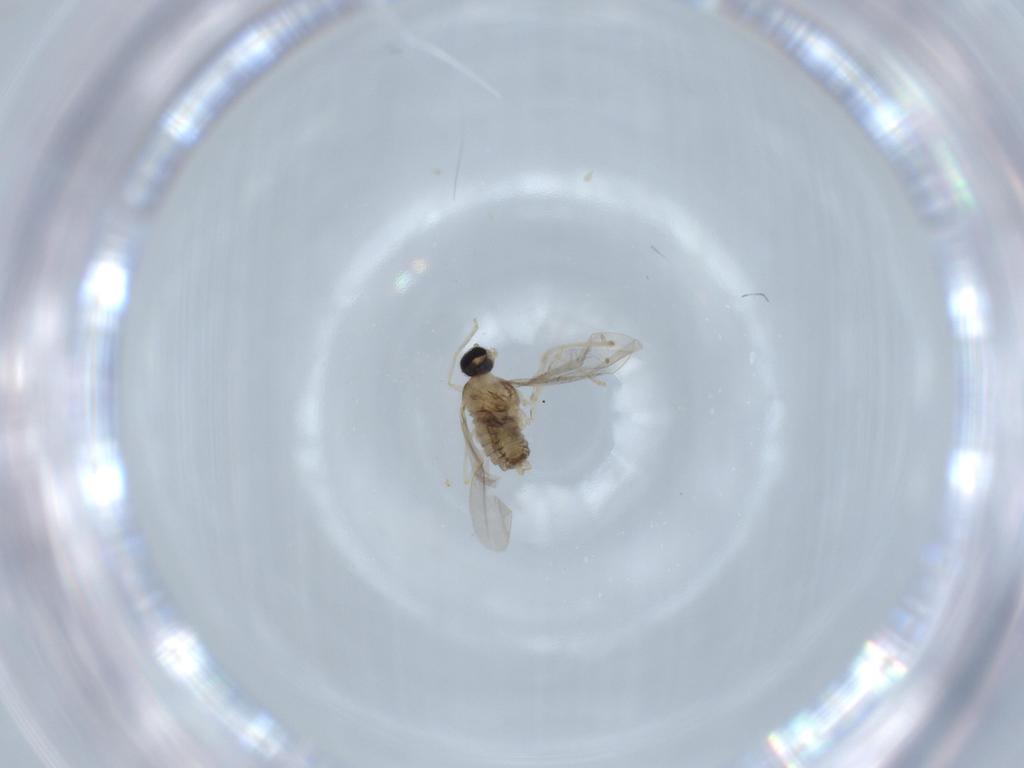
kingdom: Animalia
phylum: Arthropoda
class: Insecta
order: Diptera
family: Cecidomyiidae
